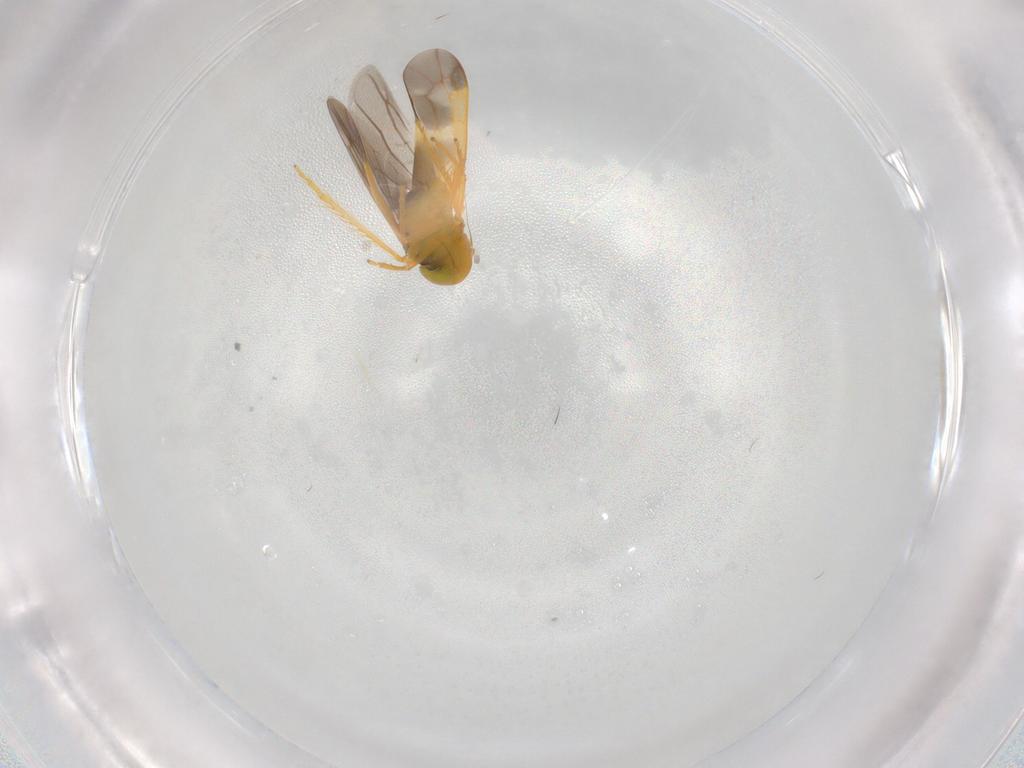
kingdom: Animalia
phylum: Arthropoda
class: Insecta
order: Hemiptera
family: Cicadellidae
